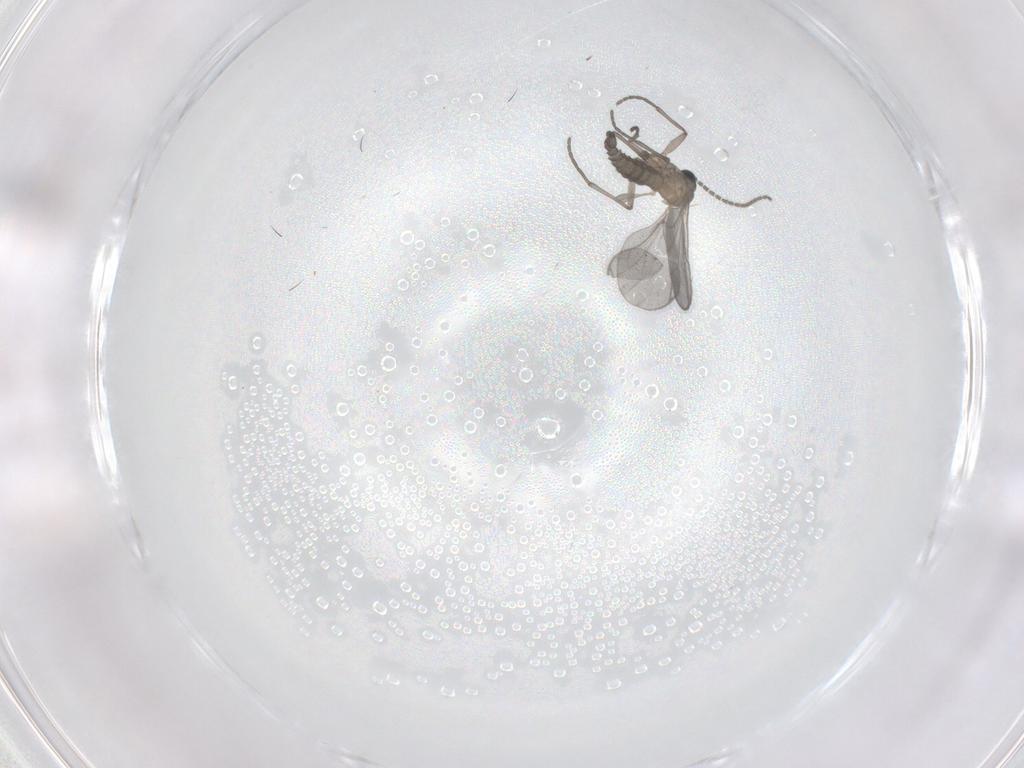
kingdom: Animalia
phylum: Arthropoda
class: Insecta
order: Diptera
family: Sciaridae
